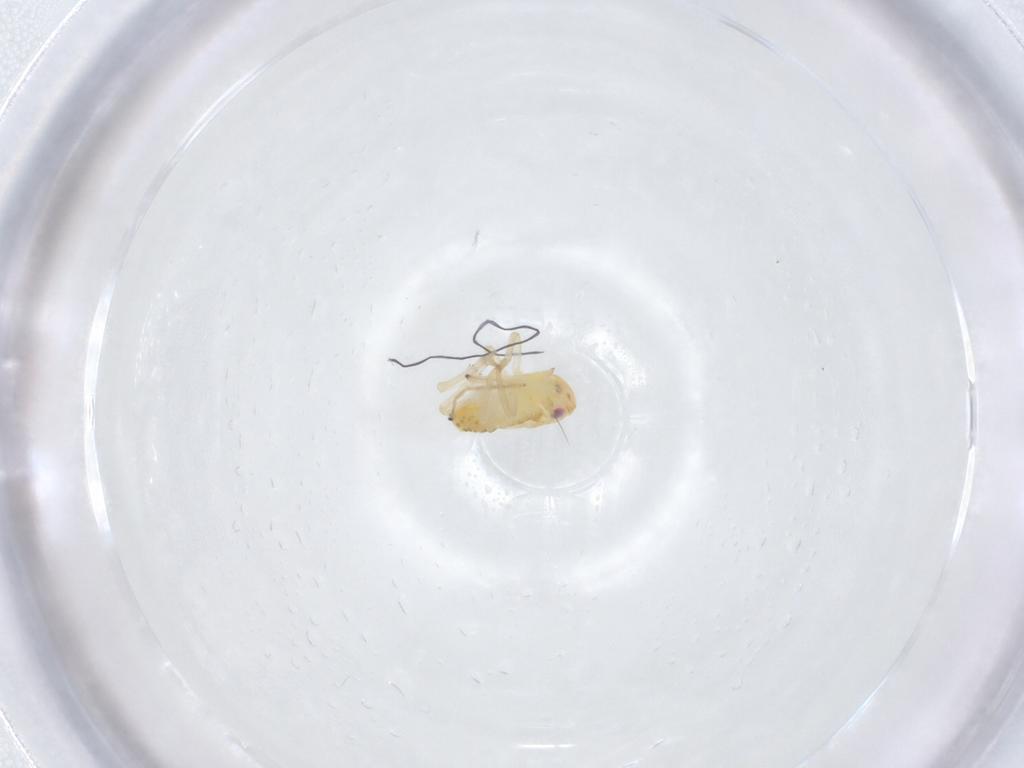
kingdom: Animalia
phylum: Arthropoda
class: Insecta
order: Hemiptera
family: Tropiduchidae
